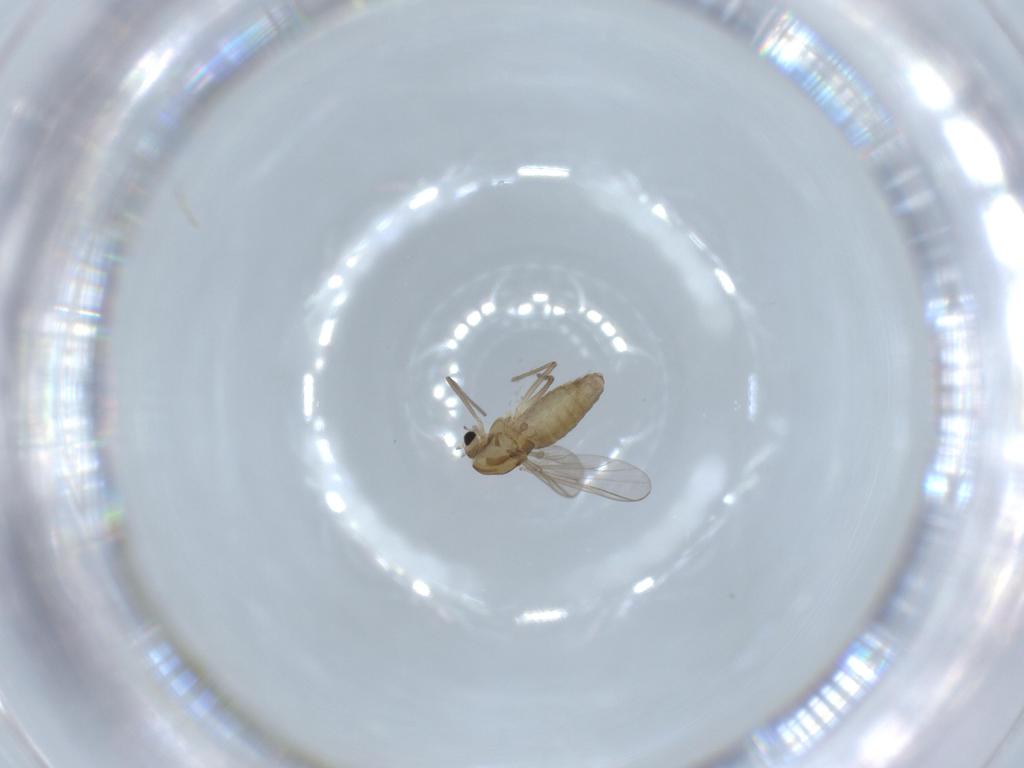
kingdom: Animalia
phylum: Arthropoda
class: Insecta
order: Diptera
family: Chironomidae
